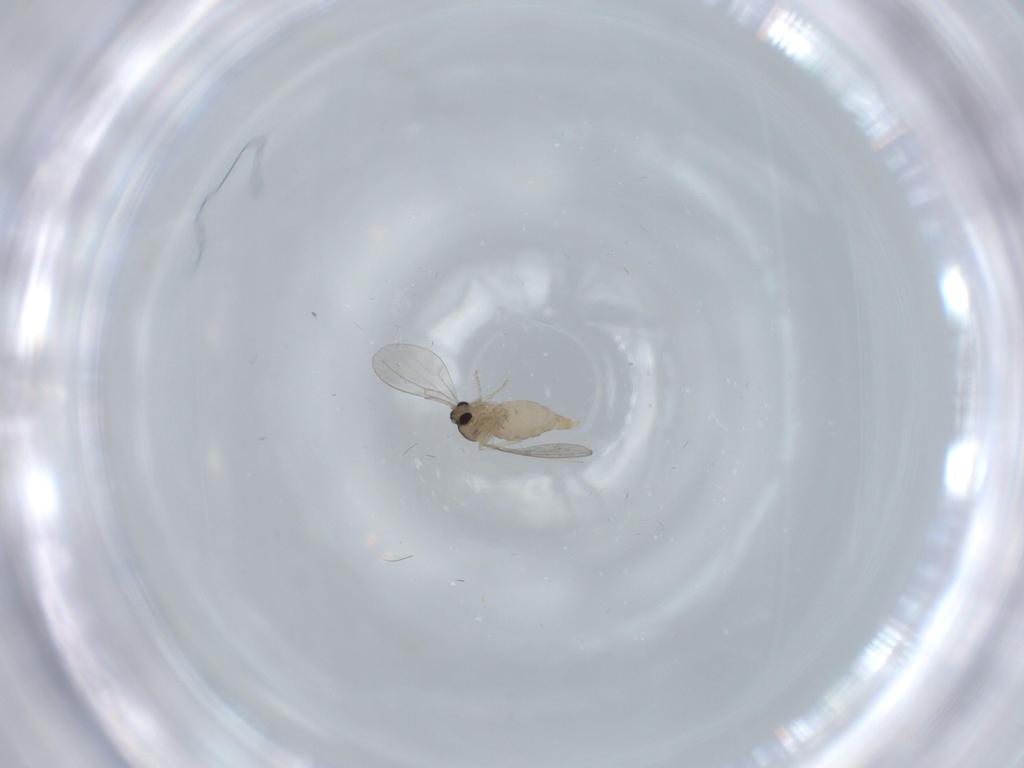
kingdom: Animalia
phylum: Arthropoda
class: Insecta
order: Diptera
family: Cecidomyiidae
